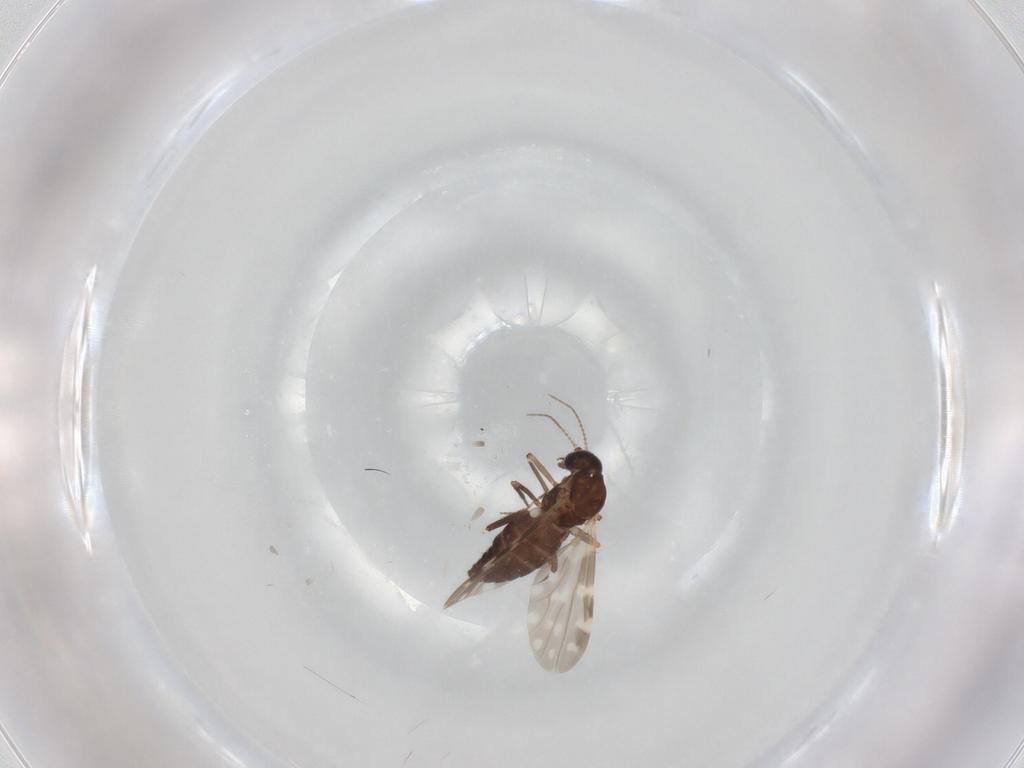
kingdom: Animalia
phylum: Arthropoda
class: Insecta
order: Diptera
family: Ceratopogonidae
